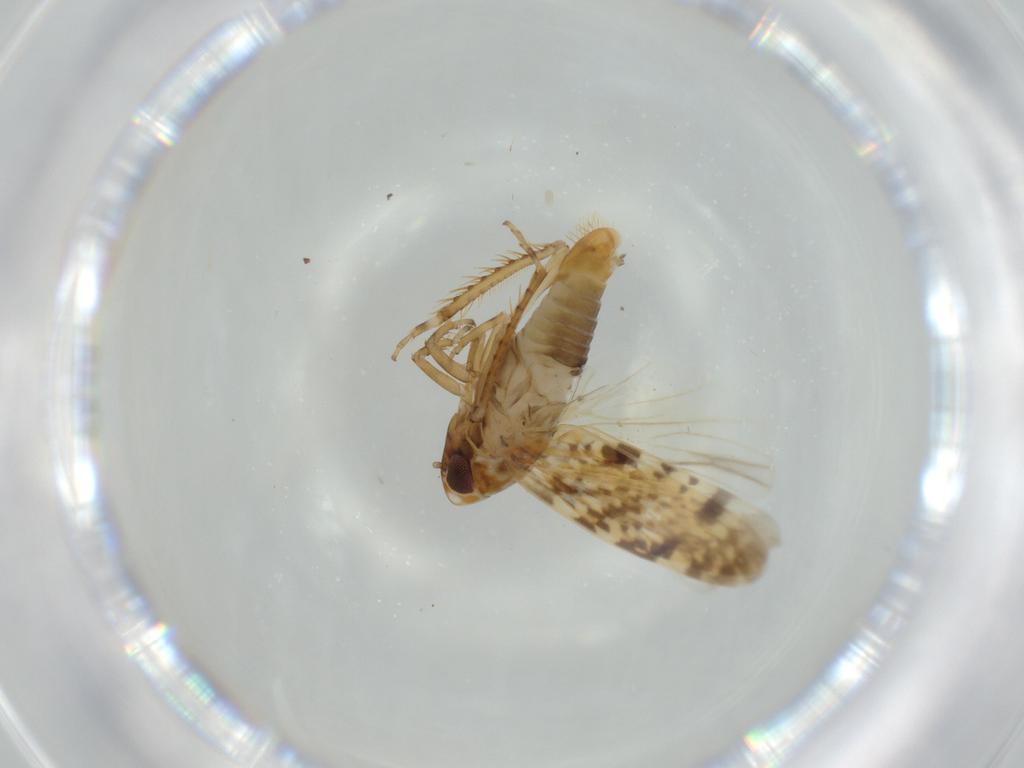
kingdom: Animalia
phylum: Arthropoda
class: Insecta
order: Hemiptera
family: Cicadellidae
